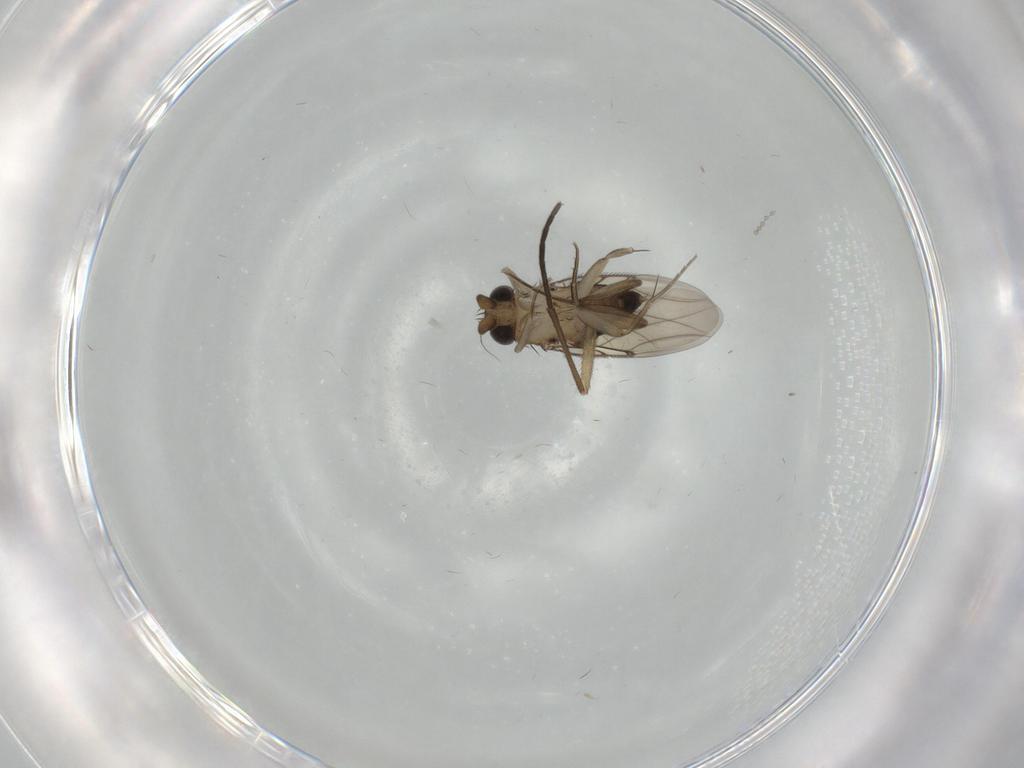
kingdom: Animalia
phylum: Arthropoda
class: Insecta
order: Diptera
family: Phoridae
